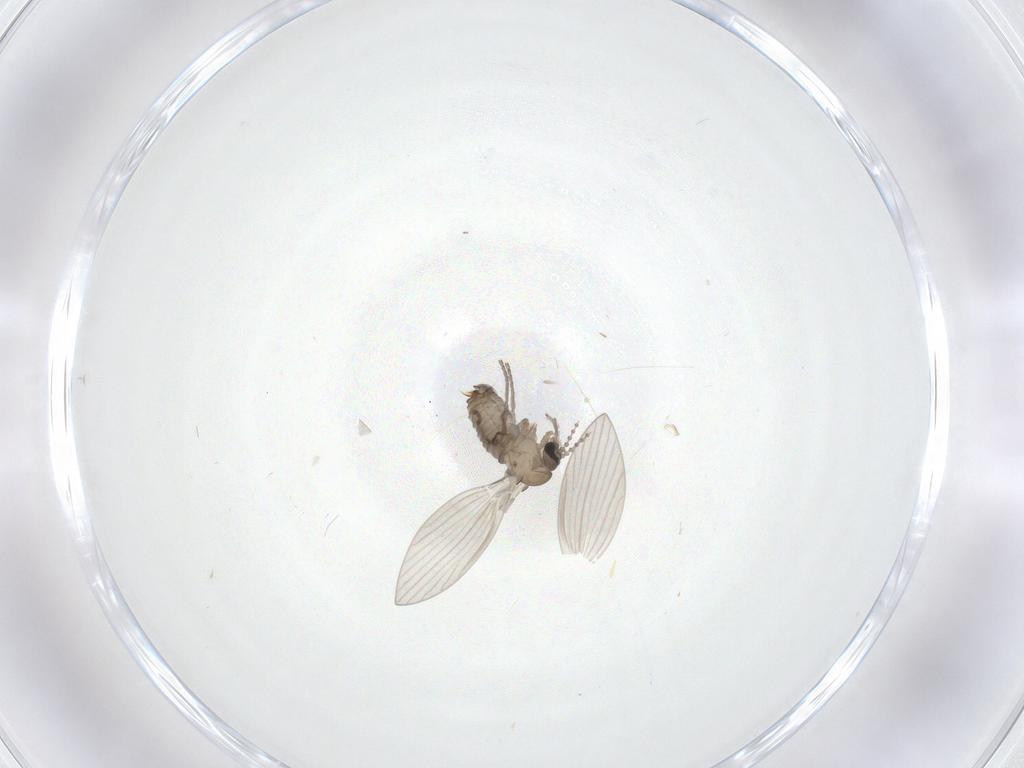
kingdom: Animalia
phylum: Arthropoda
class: Insecta
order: Diptera
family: Psychodidae
